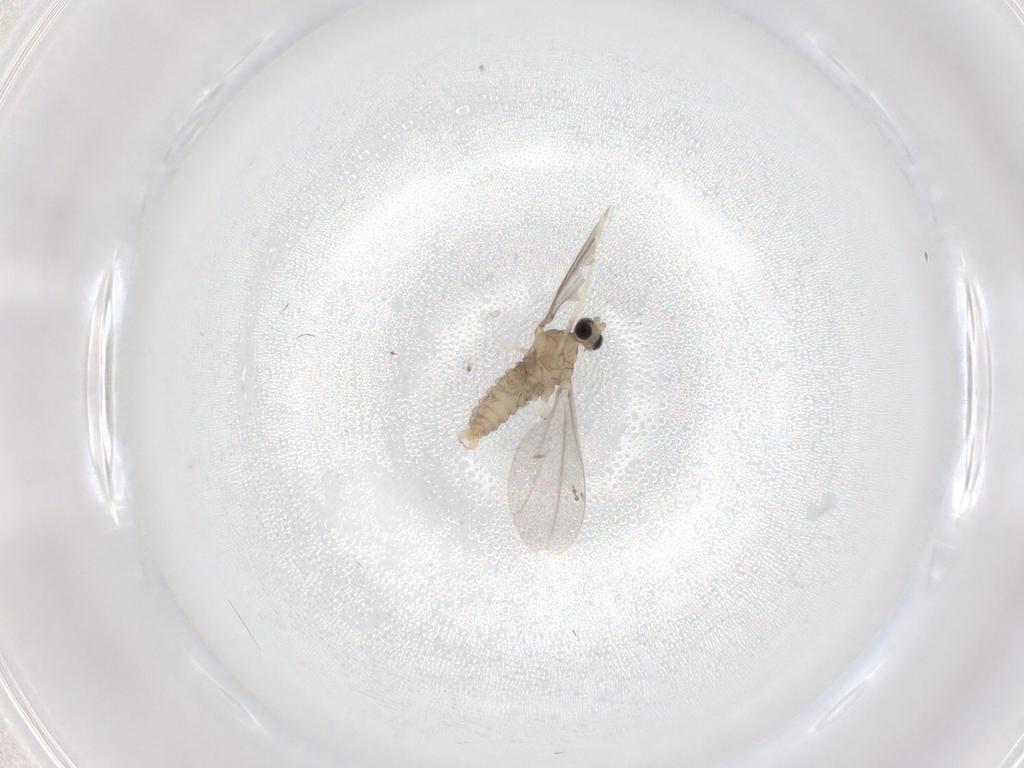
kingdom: Animalia
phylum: Arthropoda
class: Insecta
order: Diptera
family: Cecidomyiidae
